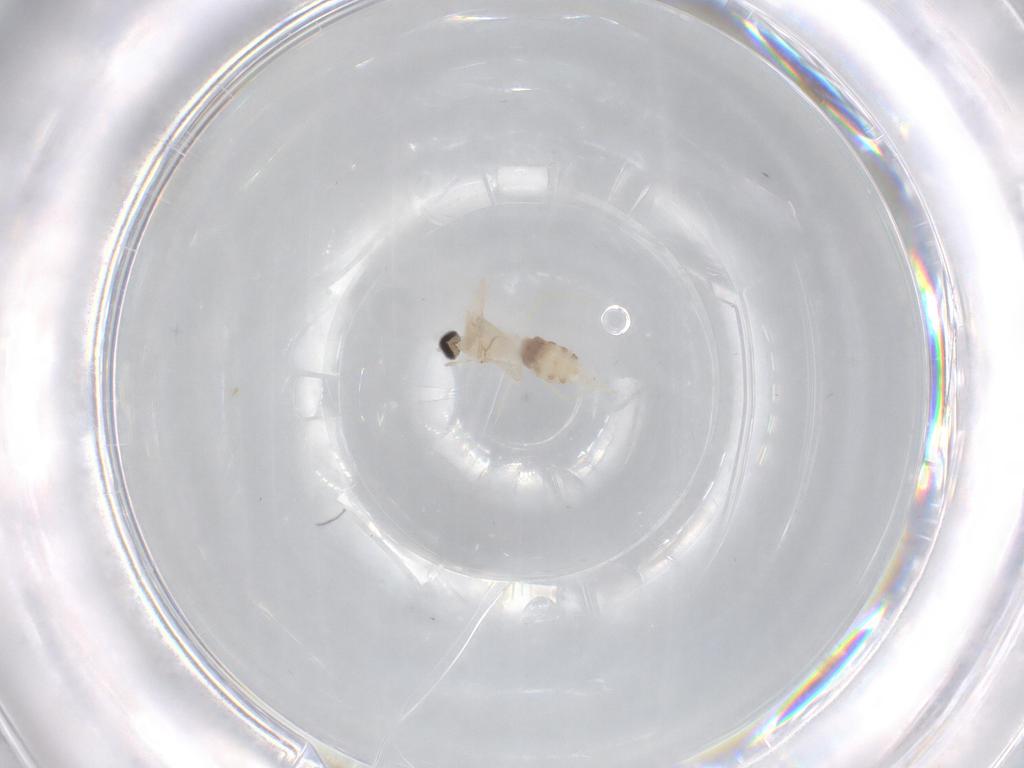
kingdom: Animalia
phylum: Arthropoda
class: Insecta
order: Diptera
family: Cecidomyiidae
